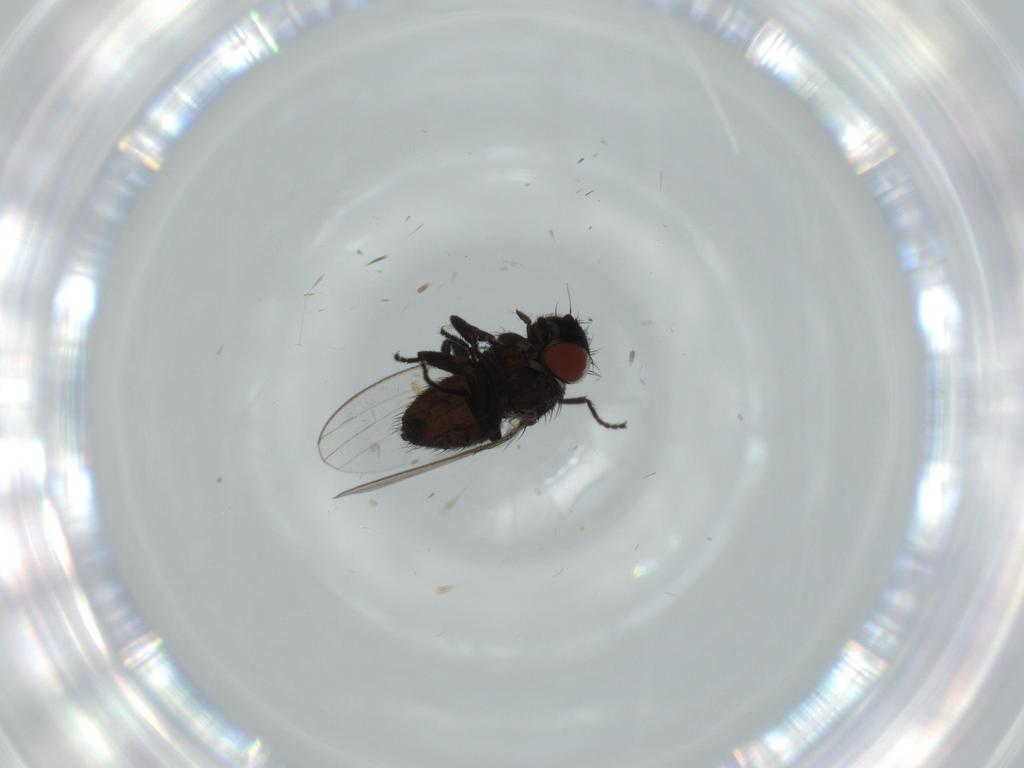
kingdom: Animalia
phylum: Arthropoda
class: Insecta
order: Diptera
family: Milichiidae
